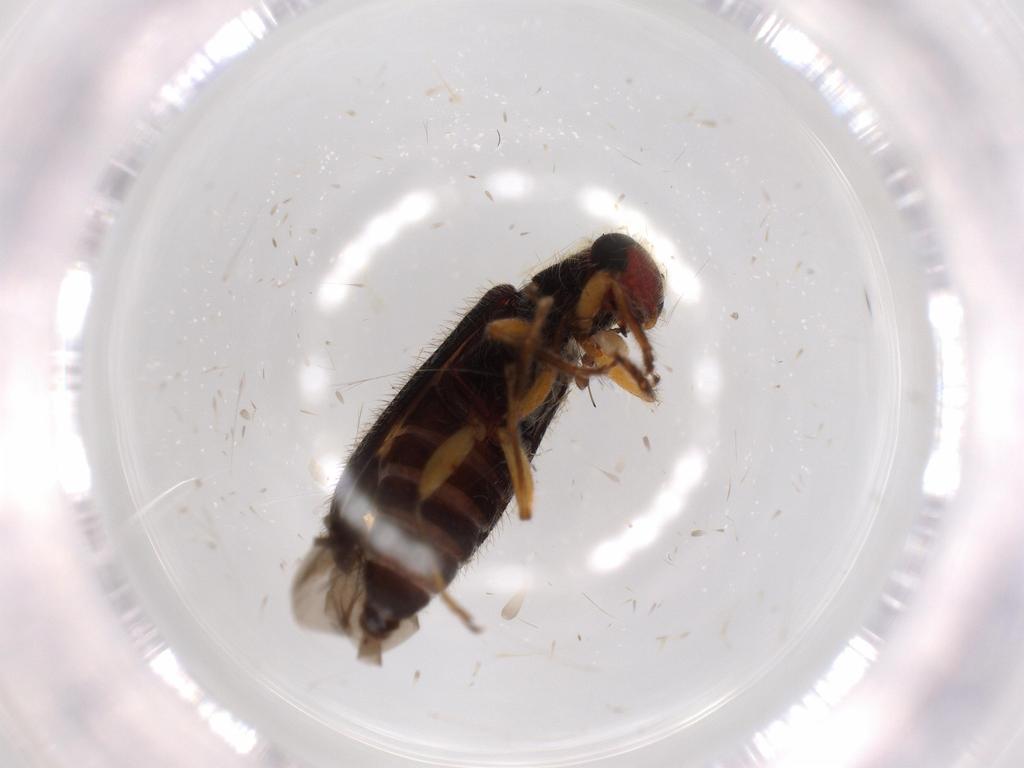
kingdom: Animalia
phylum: Arthropoda
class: Insecta
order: Coleoptera
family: Cleridae
